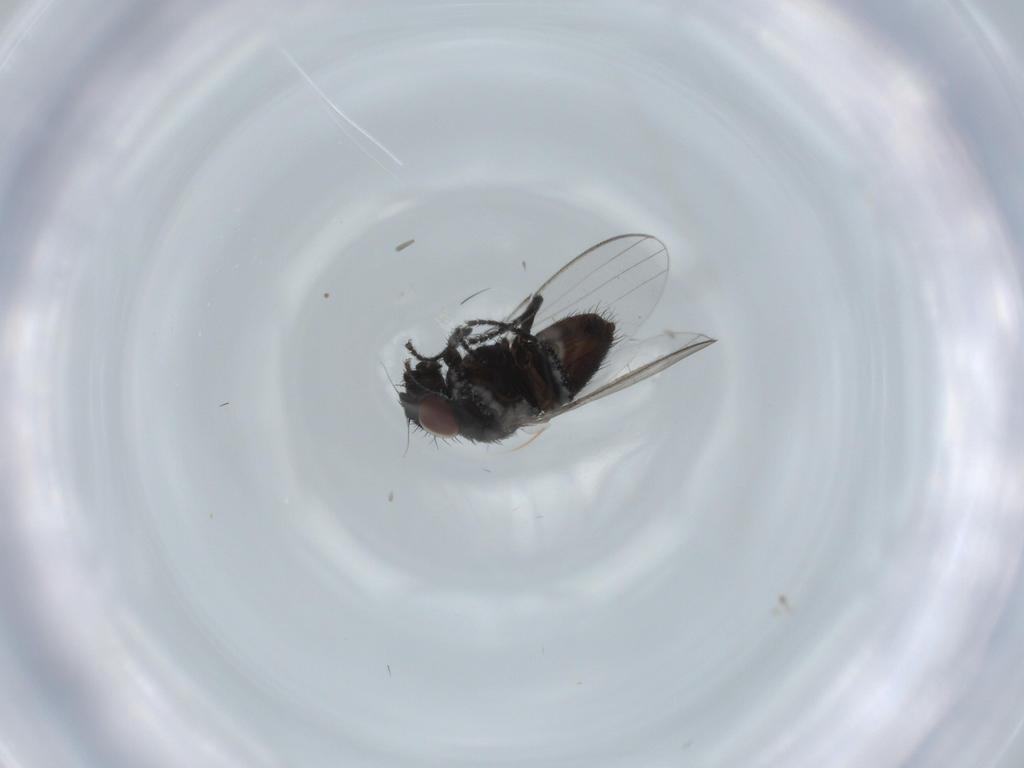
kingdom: Animalia
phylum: Arthropoda
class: Insecta
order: Diptera
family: Milichiidae
